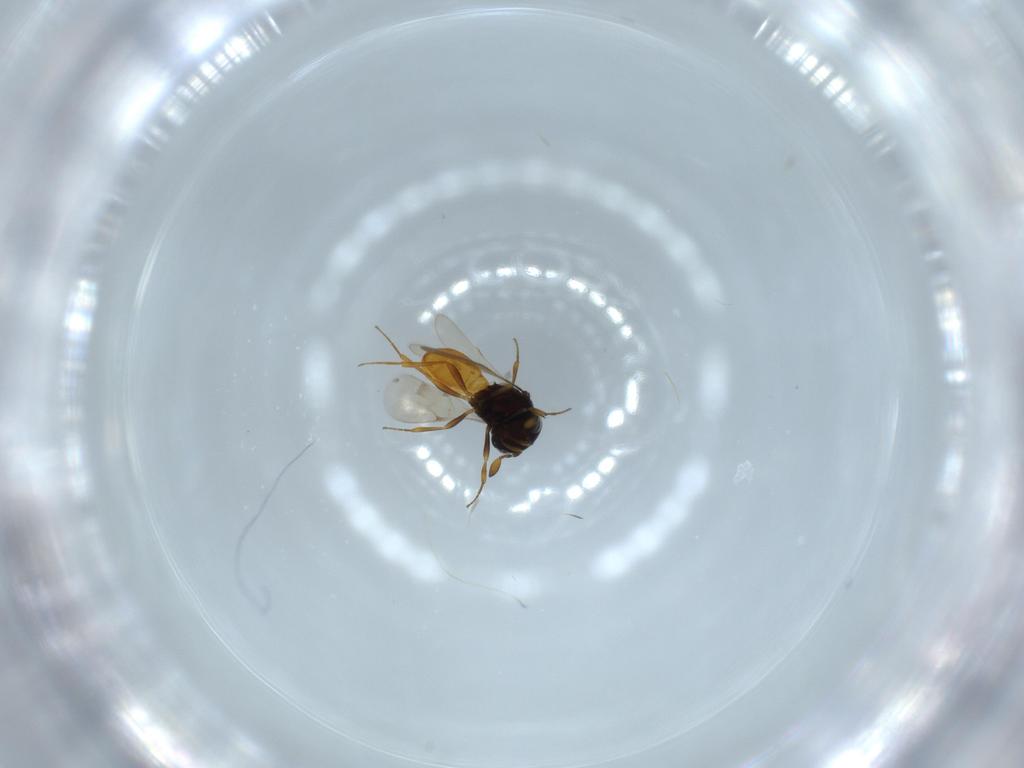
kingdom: Animalia
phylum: Arthropoda
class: Insecta
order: Hymenoptera
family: Scelionidae
